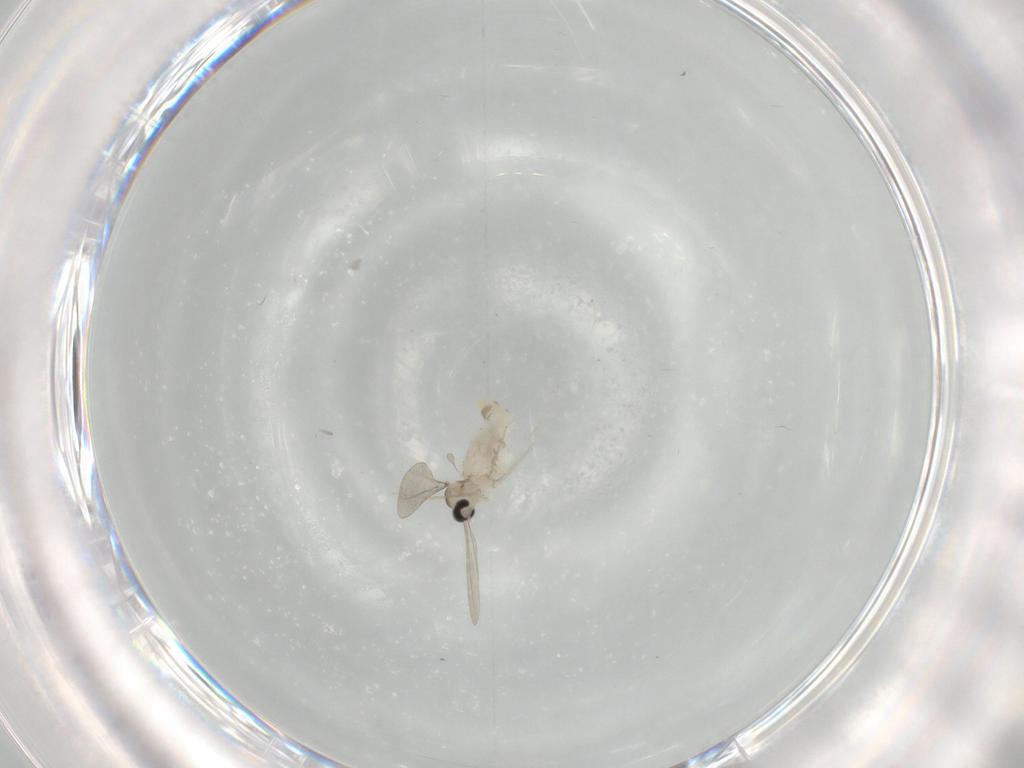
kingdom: Animalia
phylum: Arthropoda
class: Insecta
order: Diptera
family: Cecidomyiidae
